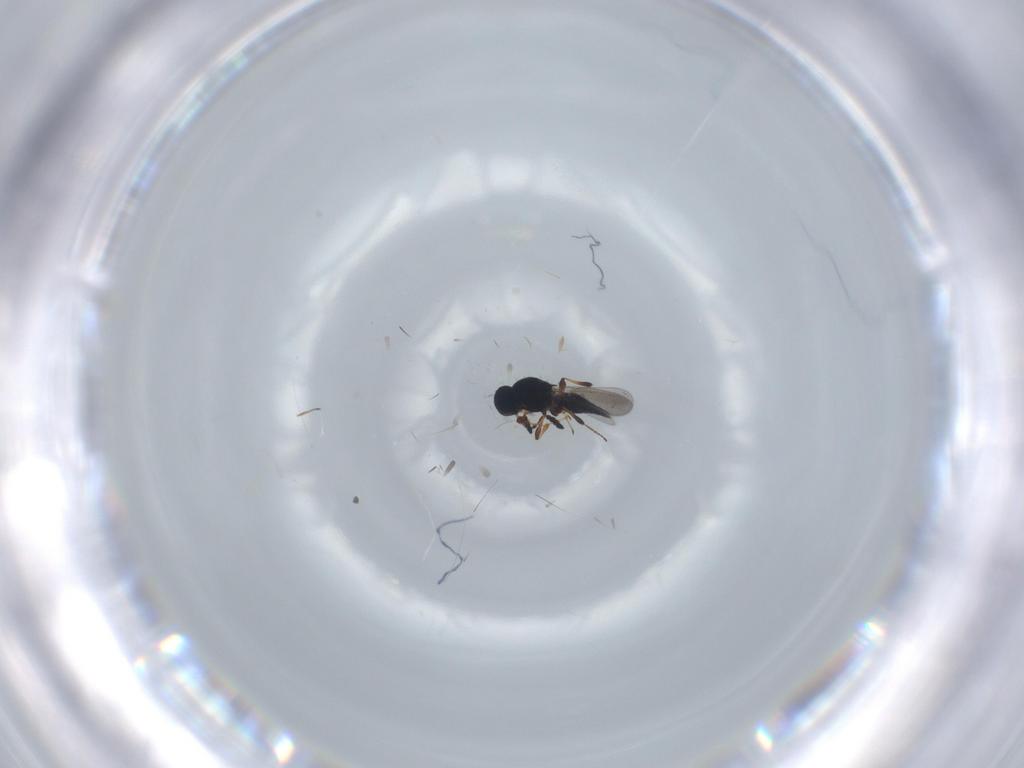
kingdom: Animalia
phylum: Arthropoda
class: Insecta
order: Hymenoptera
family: Platygastridae
